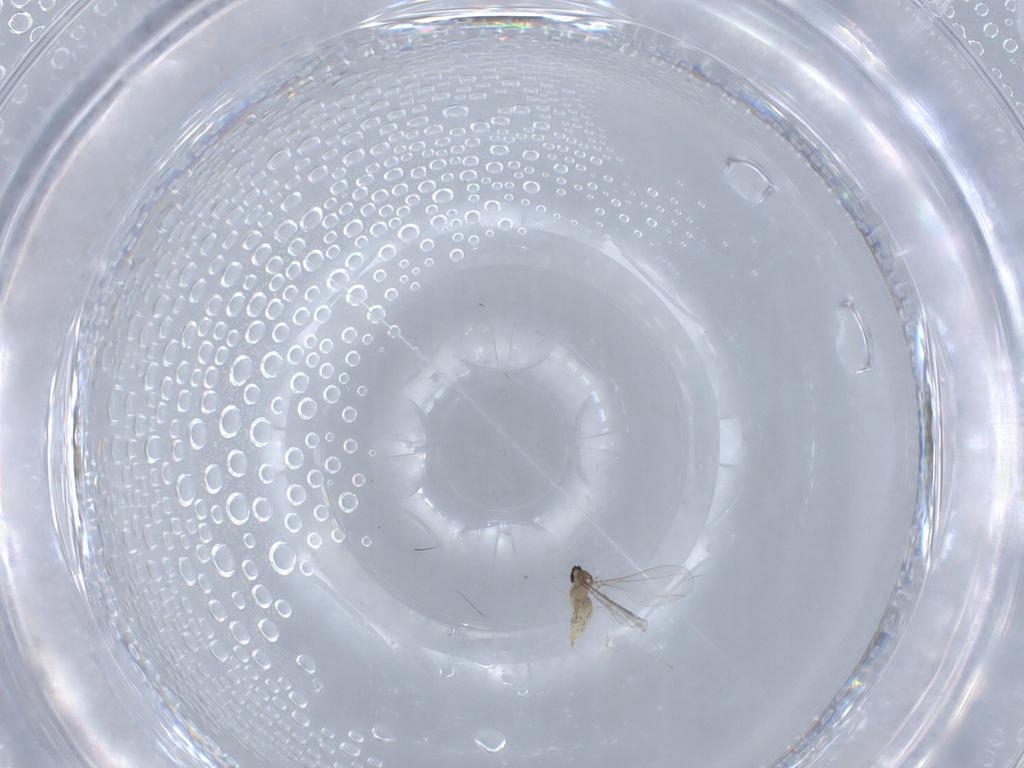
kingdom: Animalia
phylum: Arthropoda
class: Insecta
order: Diptera
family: Cecidomyiidae
